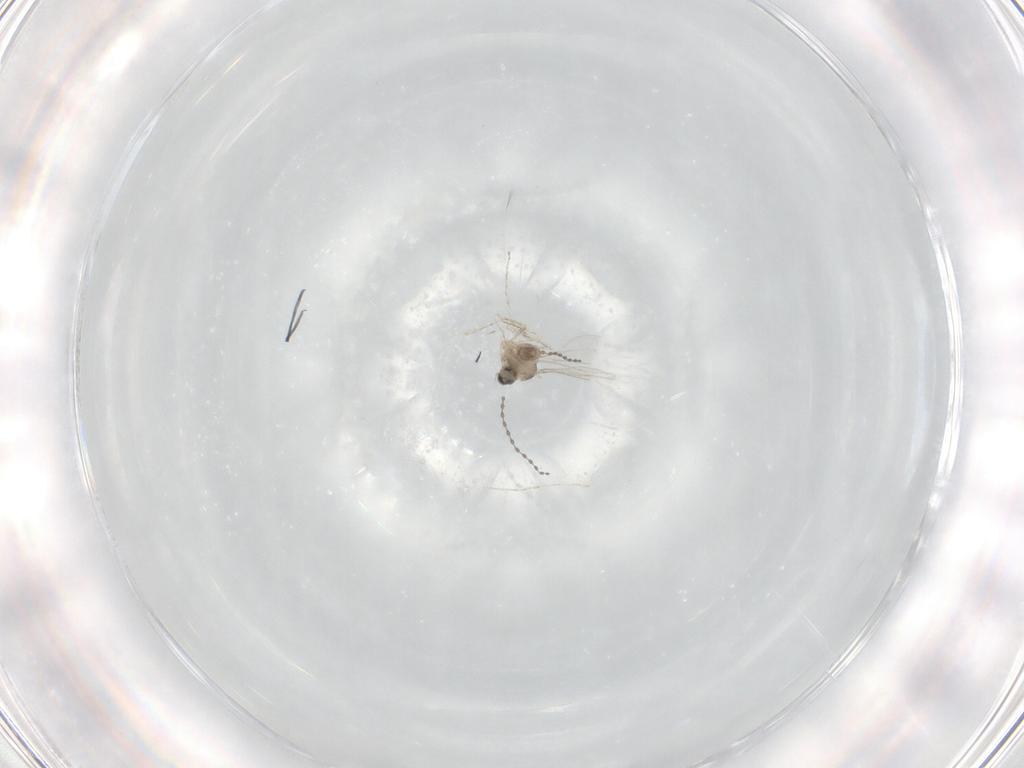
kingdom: Animalia
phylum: Arthropoda
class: Insecta
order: Diptera
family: Cecidomyiidae
